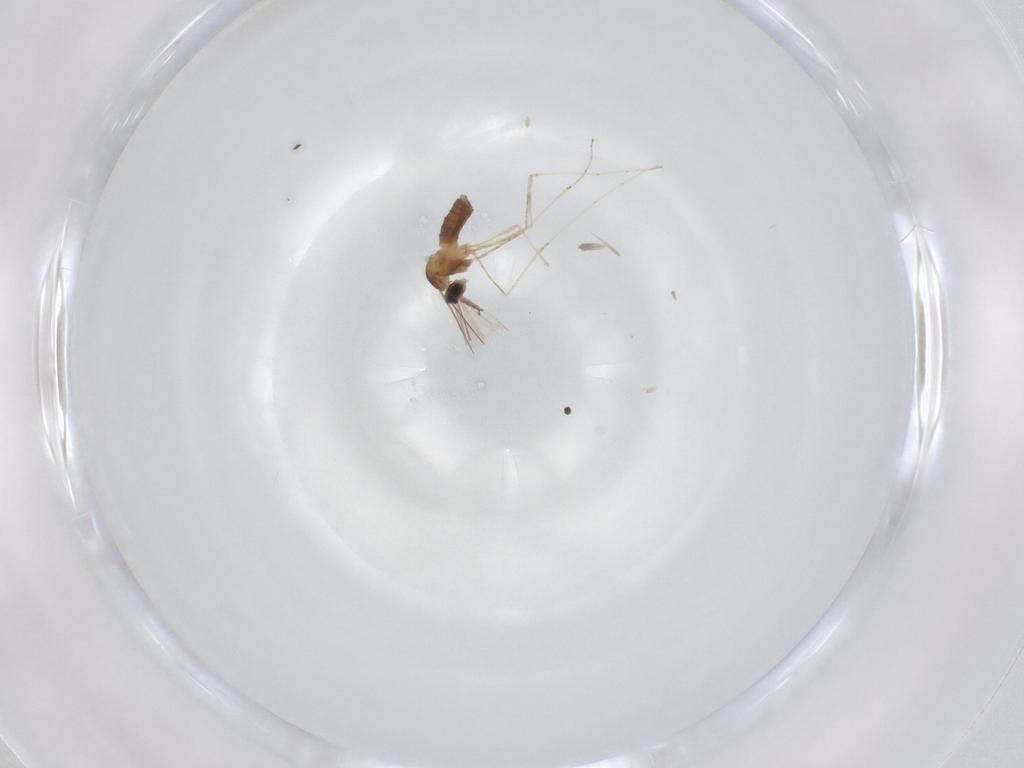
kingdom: Animalia
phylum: Arthropoda
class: Insecta
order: Diptera
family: Cecidomyiidae
